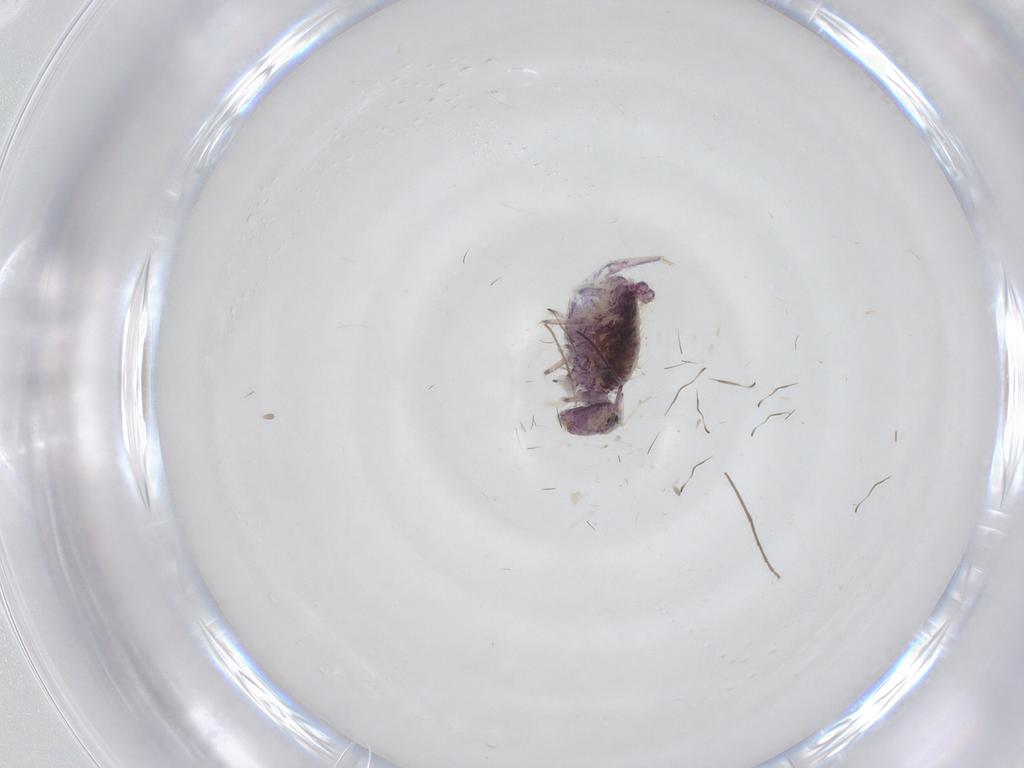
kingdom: Animalia
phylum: Arthropoda
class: Collembola
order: Symphypleona
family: Sminthuridae
